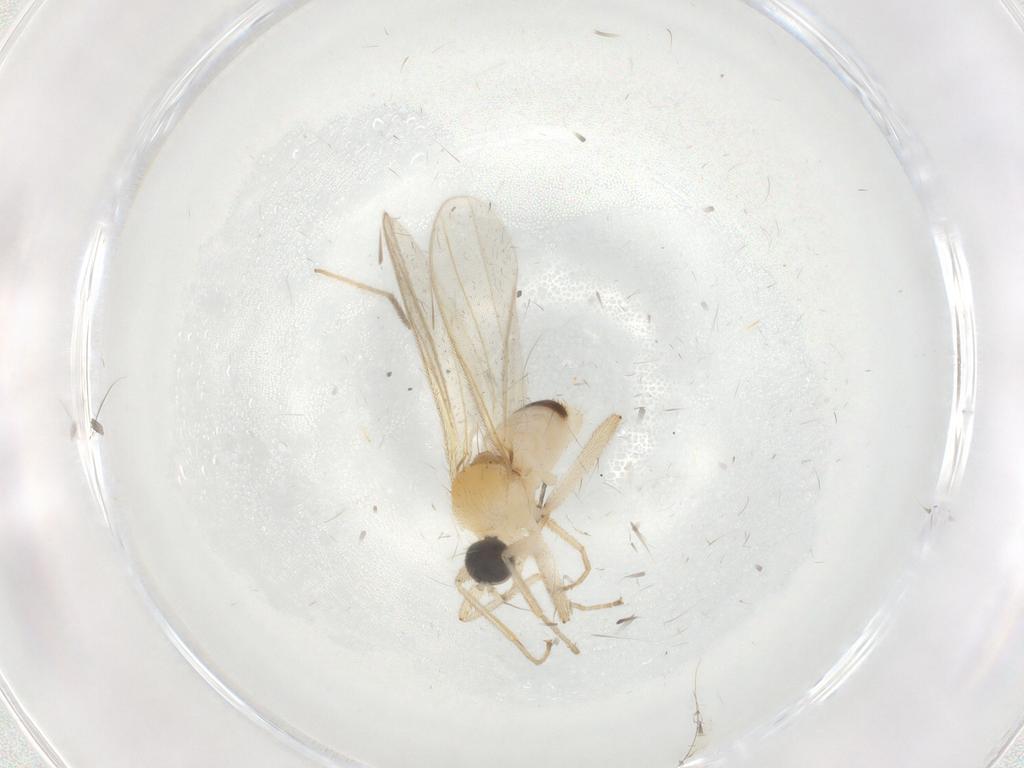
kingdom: Animalia
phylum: Arthropoda
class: Insecta
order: Diptera
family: Hybotidae
